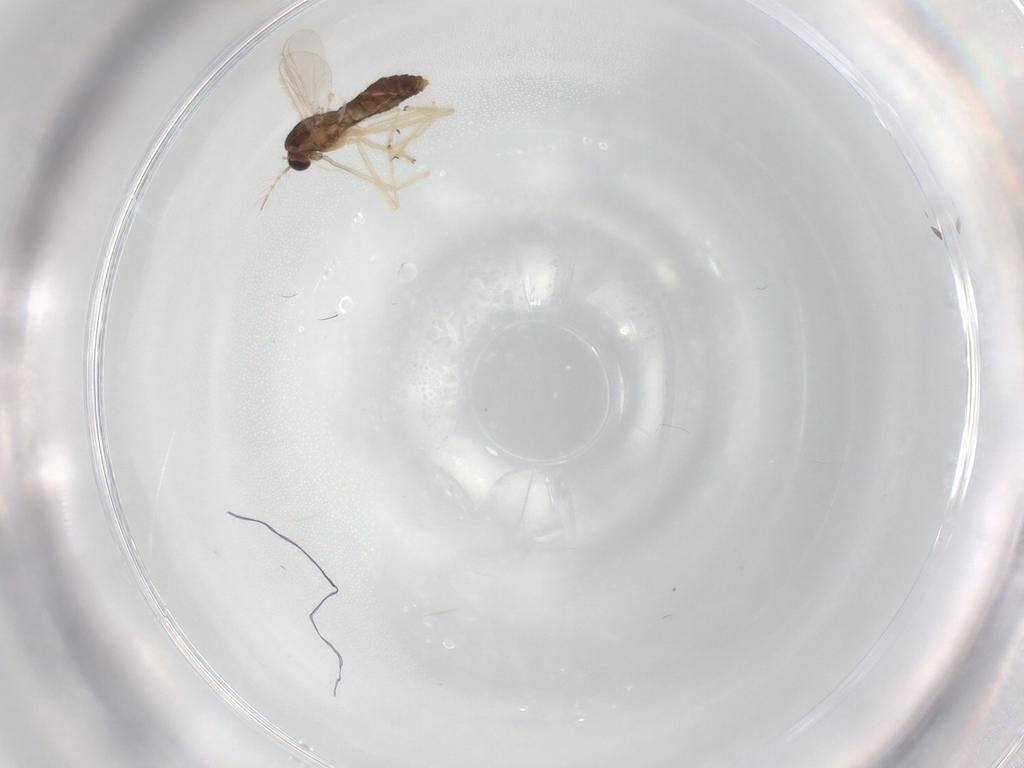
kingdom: Animalia
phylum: Arthropoda
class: Insecta
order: Diptera
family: Chironomidae
